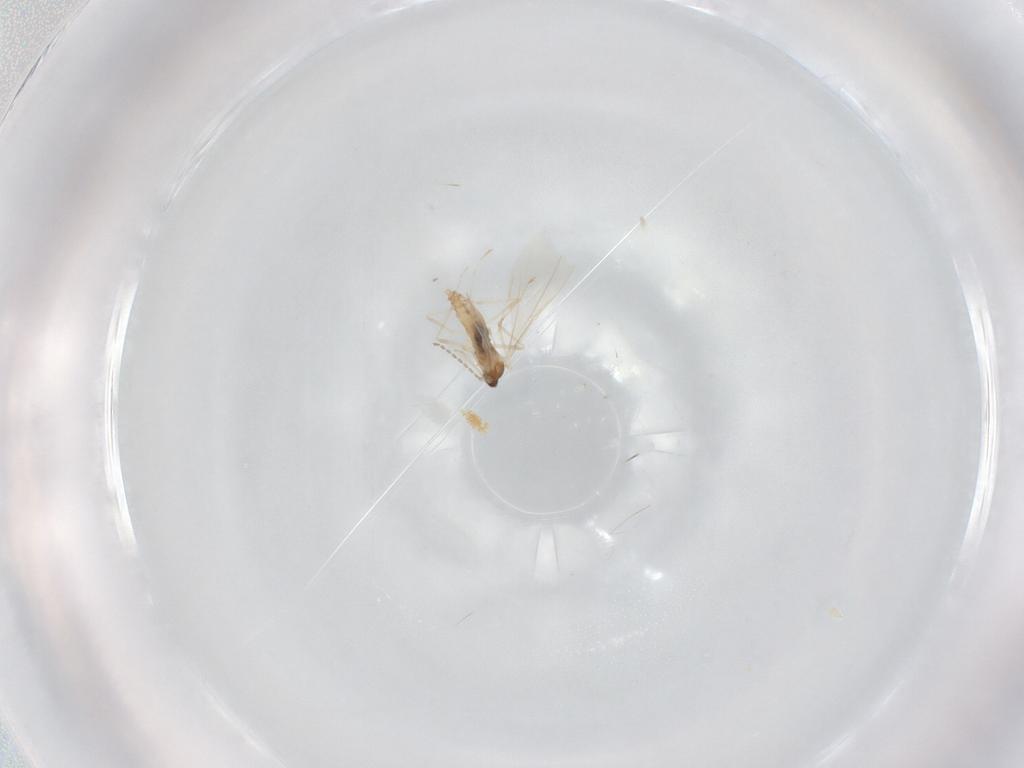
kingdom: Animalia
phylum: Arthropoda
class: Insecta
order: Diptera
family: Cecidomyiidae
